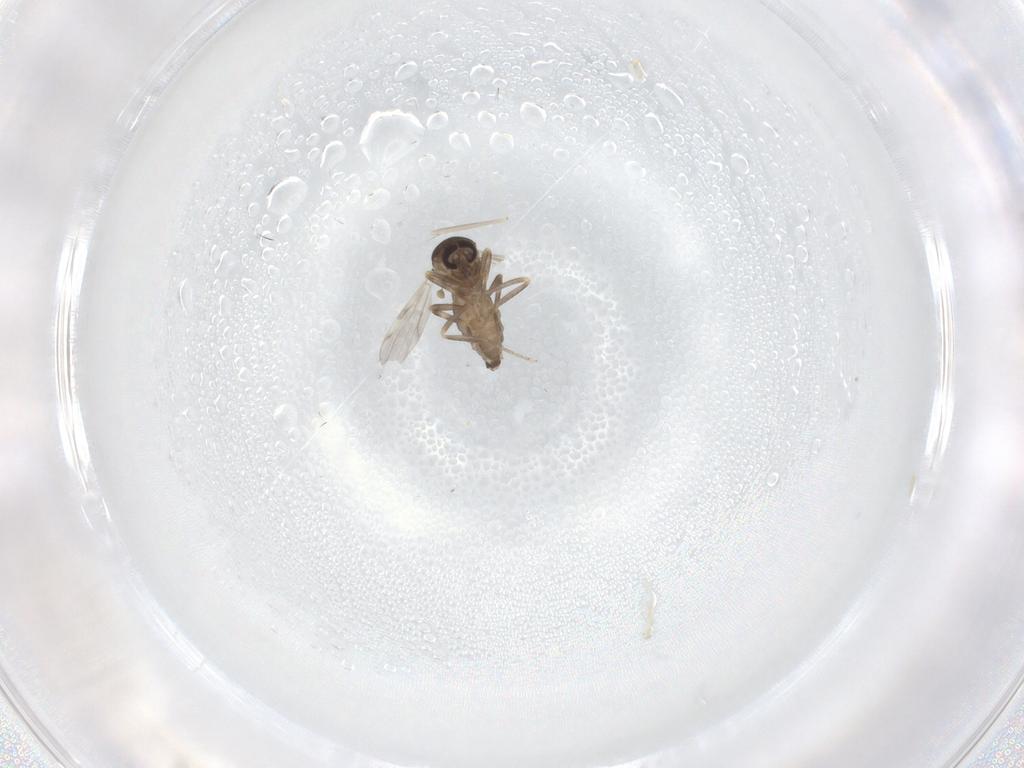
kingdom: Animalia
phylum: Arthropoda
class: Insecta
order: Diptera
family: Ceratopogonidae
